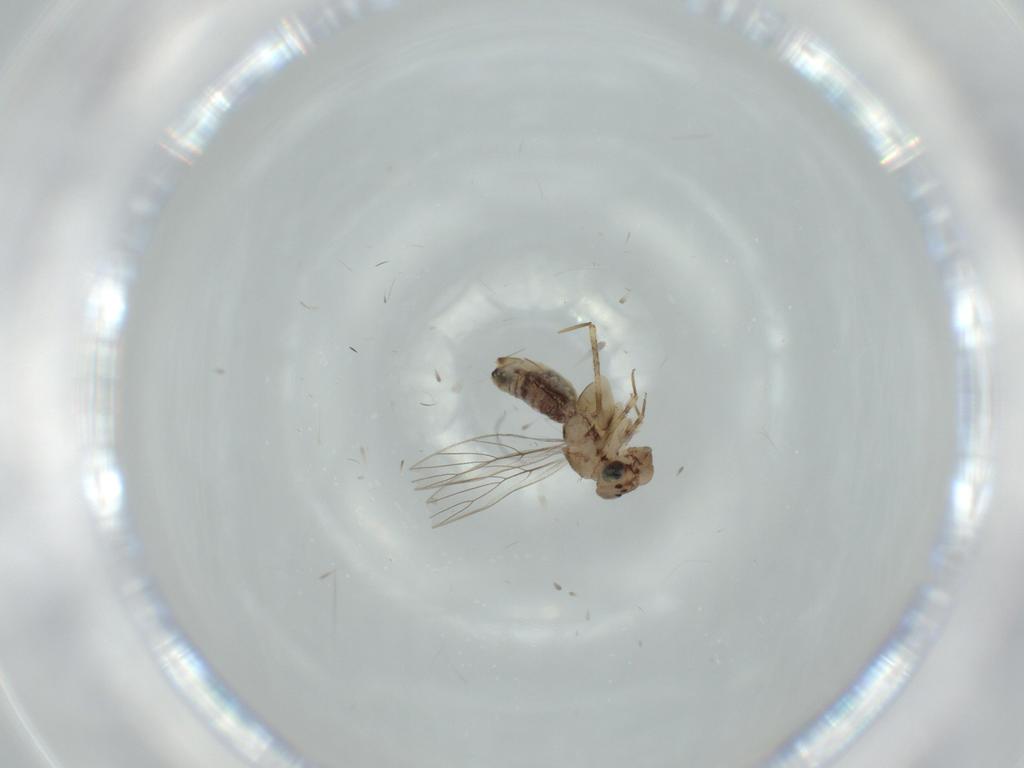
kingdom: Animalia
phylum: Arthropoda
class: Insecta
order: Psocodea
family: Lepidopsocidae
